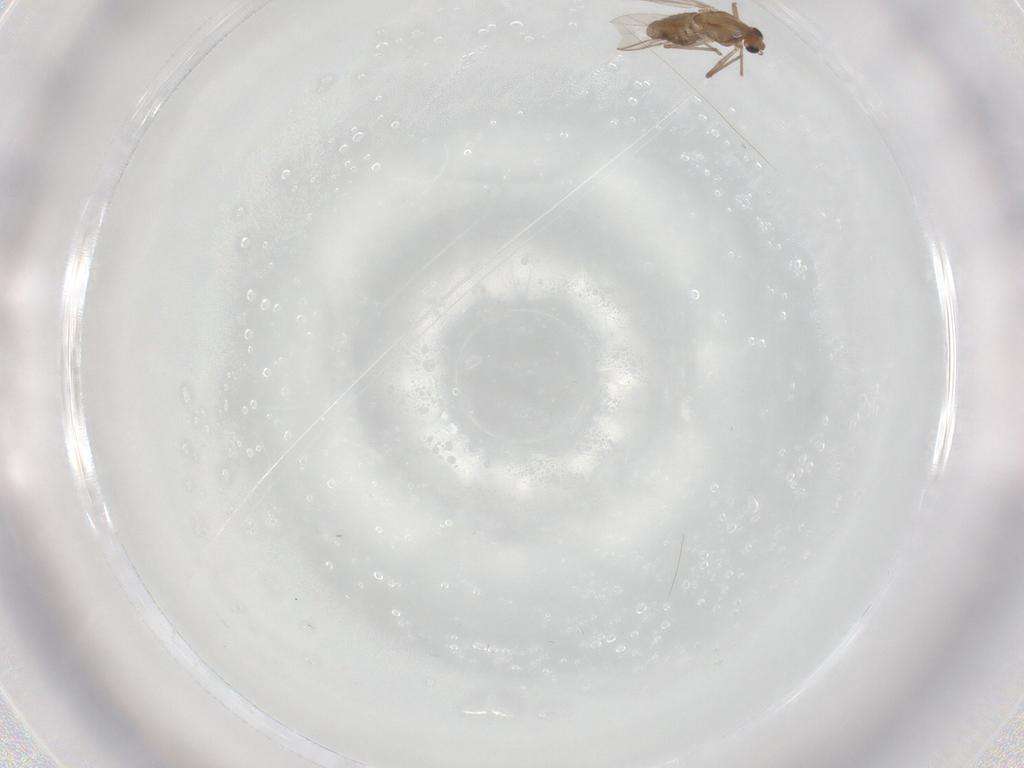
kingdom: Animalia
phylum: Arthropoda
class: Insecta
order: Diptera
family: Chironomidae
